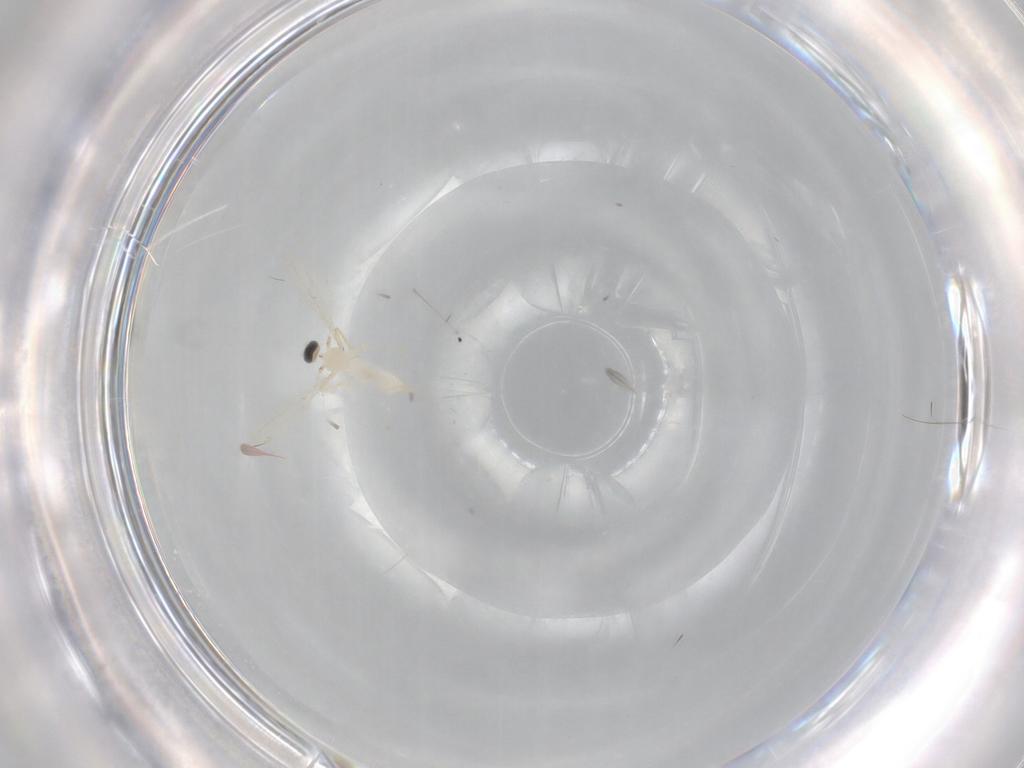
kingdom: Animalia
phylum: Arthropoda
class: Insecta
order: Diptera
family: Cecidomyiidae
